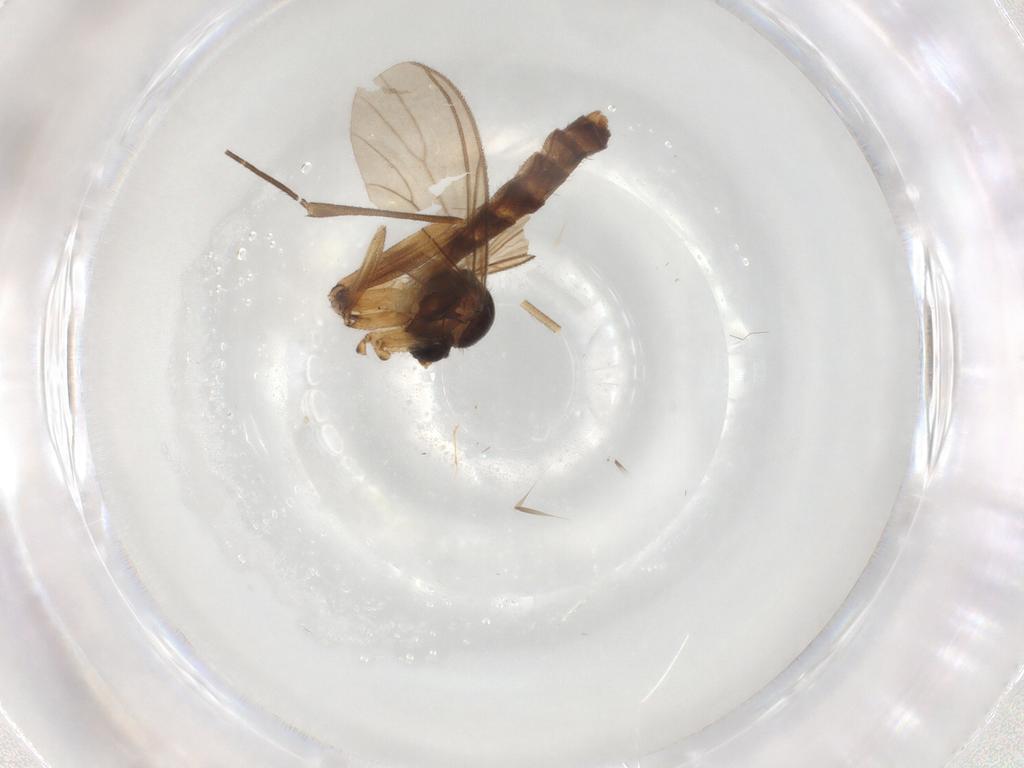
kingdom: Animalia
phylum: Arthropoda
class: Insecta
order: Diptera
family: Mycetophilidae
